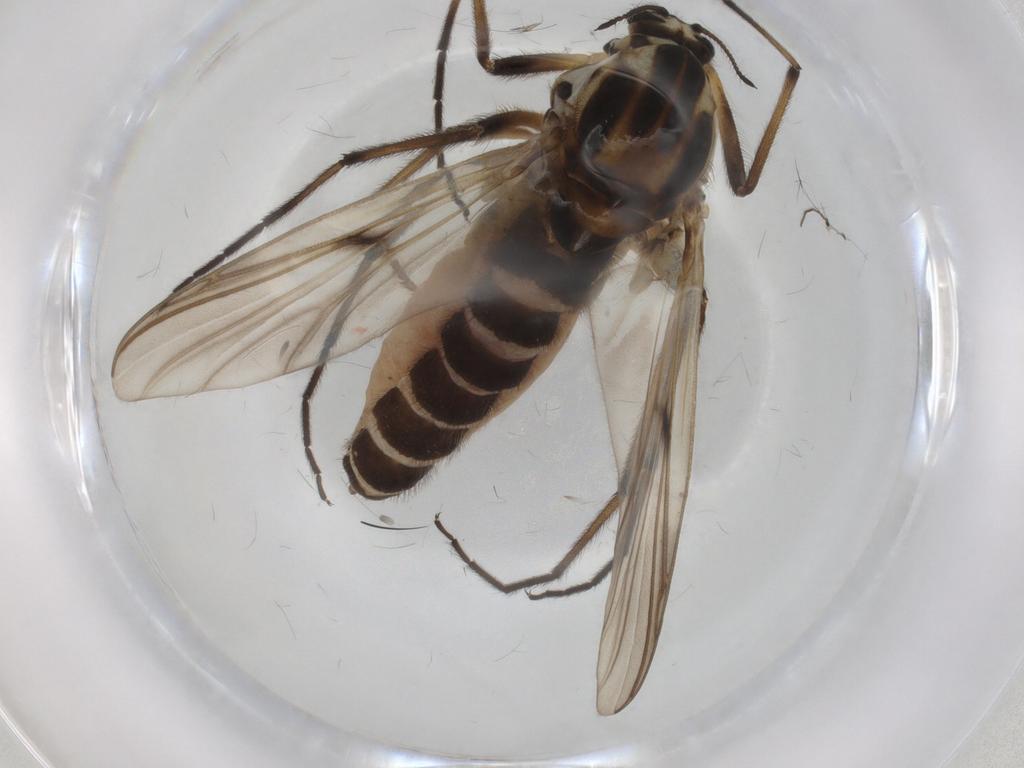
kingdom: Animalia
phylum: Arthropoda
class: Insecta
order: Diptera
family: Chironomidae
